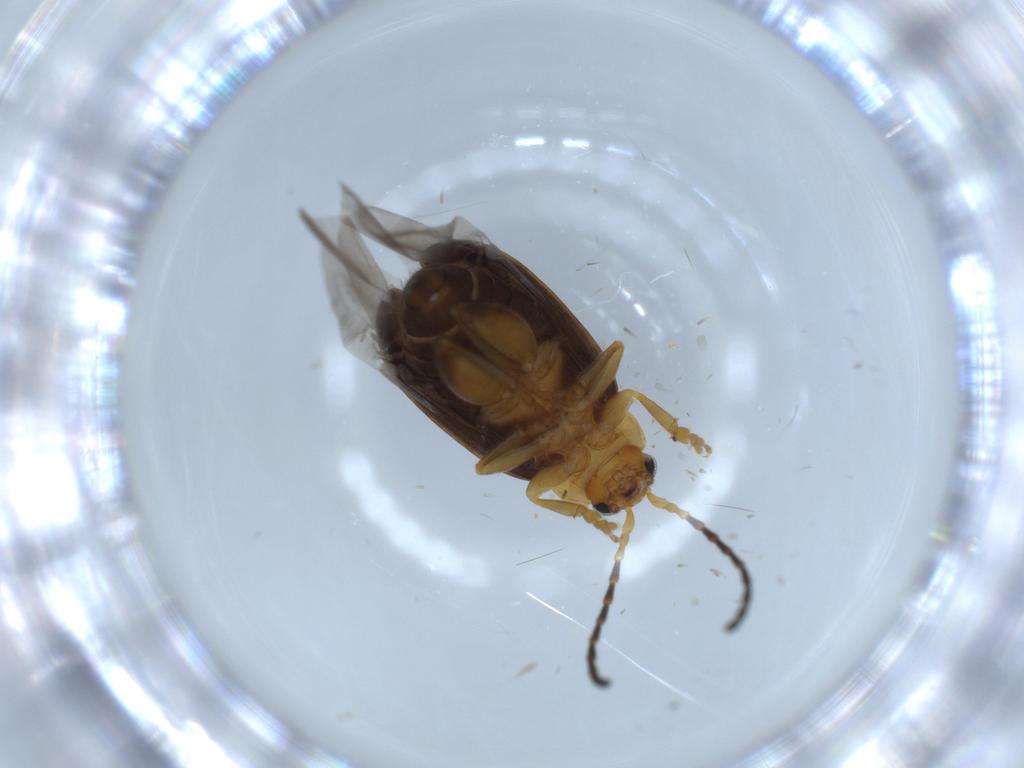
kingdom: Animalia
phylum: Arthropoda
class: Insecta
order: Coleoptera
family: Chrysomelidae
